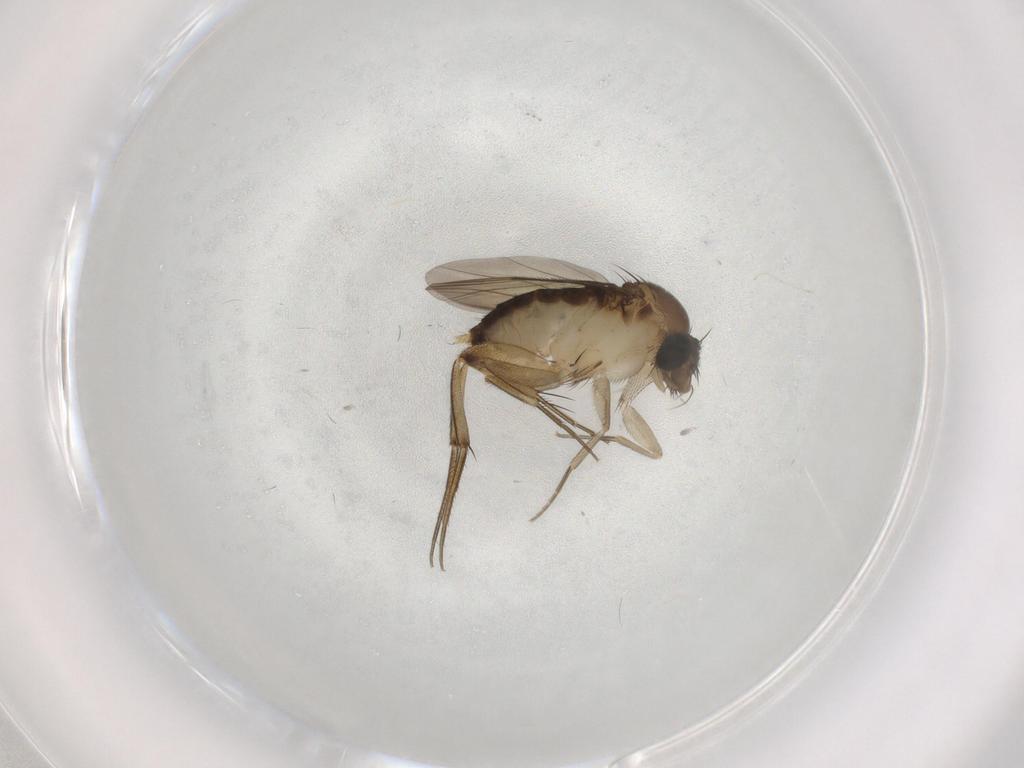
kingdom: Animalia
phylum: Arthropoda
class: Insecta
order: Diptera
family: Phoridae
